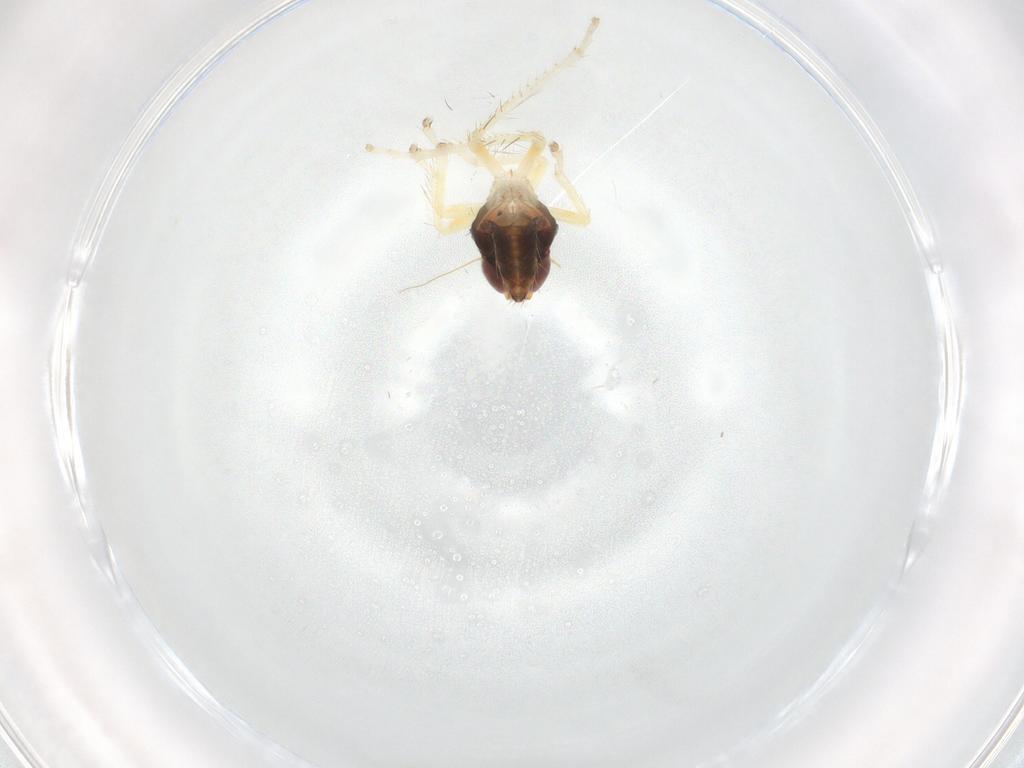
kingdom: Animalia
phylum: Arthropoda
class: Insecta
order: Hemiptera
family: Cicadellidae
